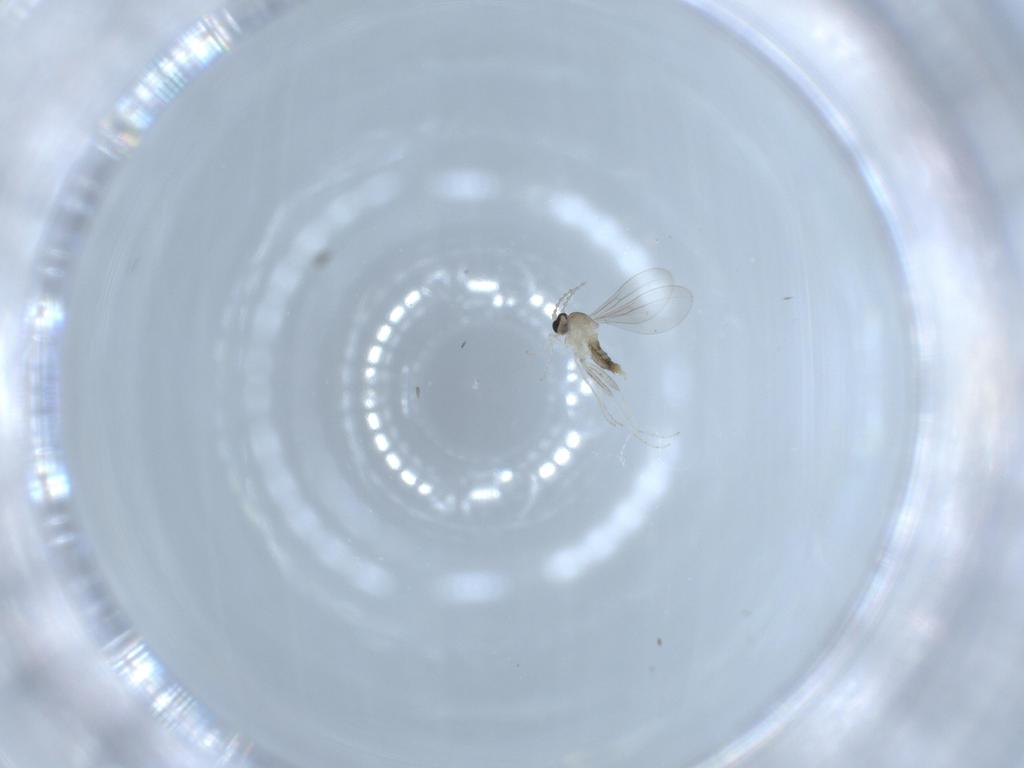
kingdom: Animalia
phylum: Arthropoda
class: Insecta
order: Diptera
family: Cecidomyiidae
